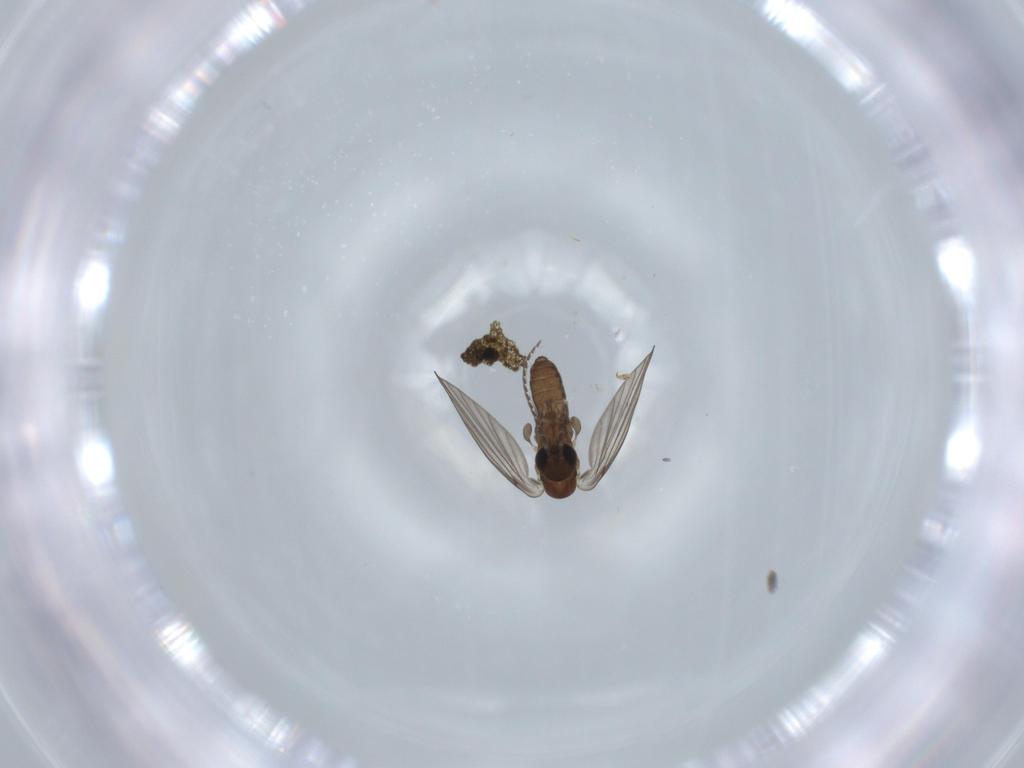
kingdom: Animalia
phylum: Arthropoda
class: Insecta
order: Diptera
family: Psychodidae
